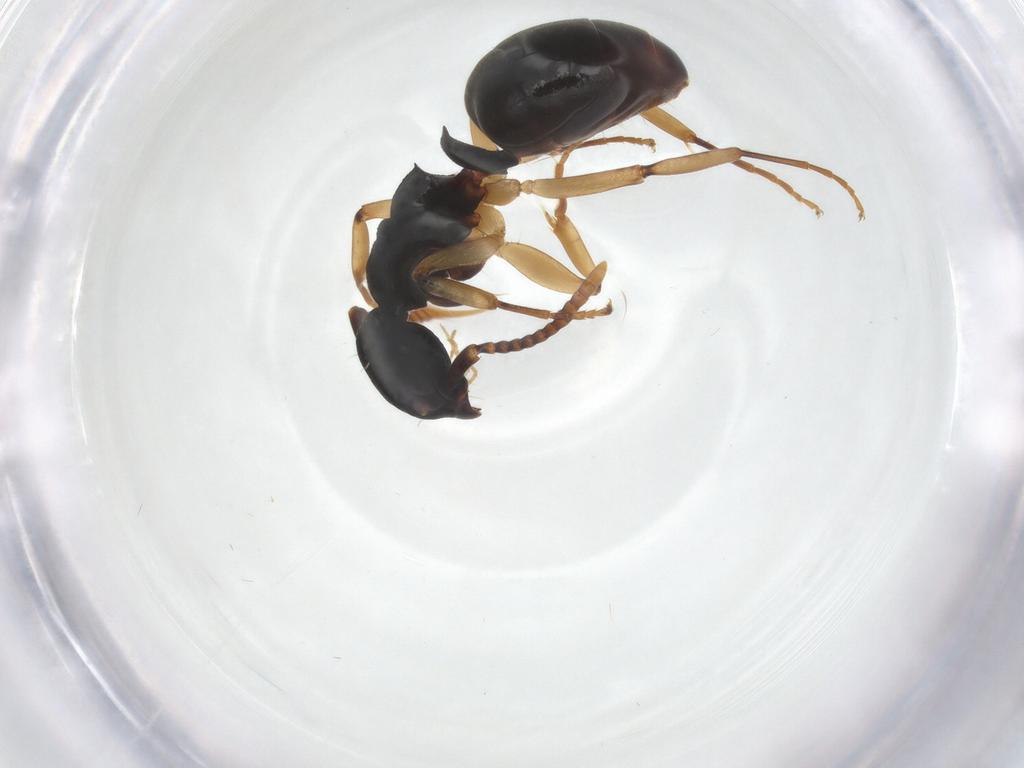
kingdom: Animalia
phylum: Arthropoda
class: Insecta
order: Hymenoptera
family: Formicidae
